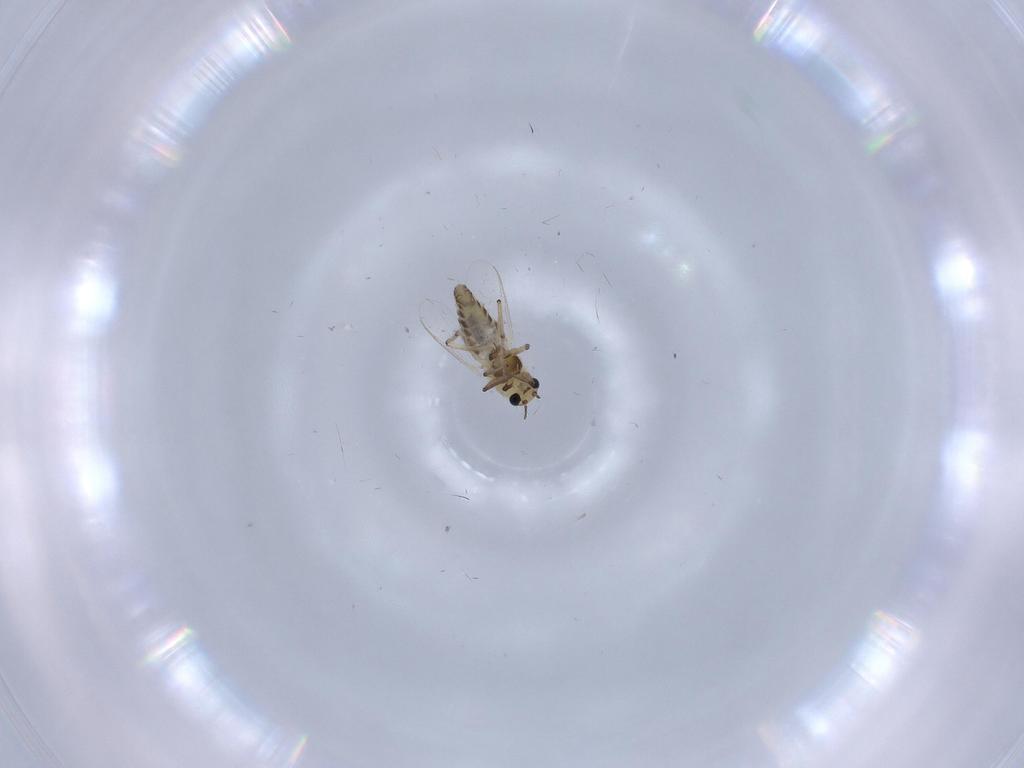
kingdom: Animalia
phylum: Arthropoda
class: Insecta
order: Diptera
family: Chironomidae
